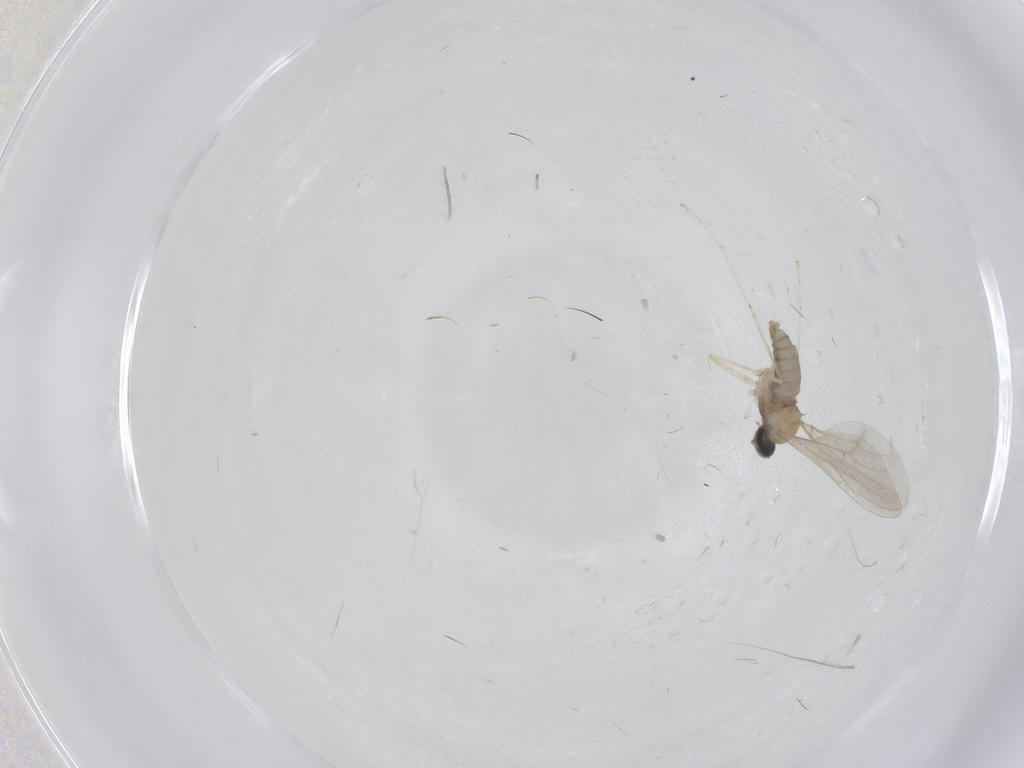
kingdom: Animalia
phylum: Arthropoda
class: Insecta
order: Diptera
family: Cecidomyiidae
